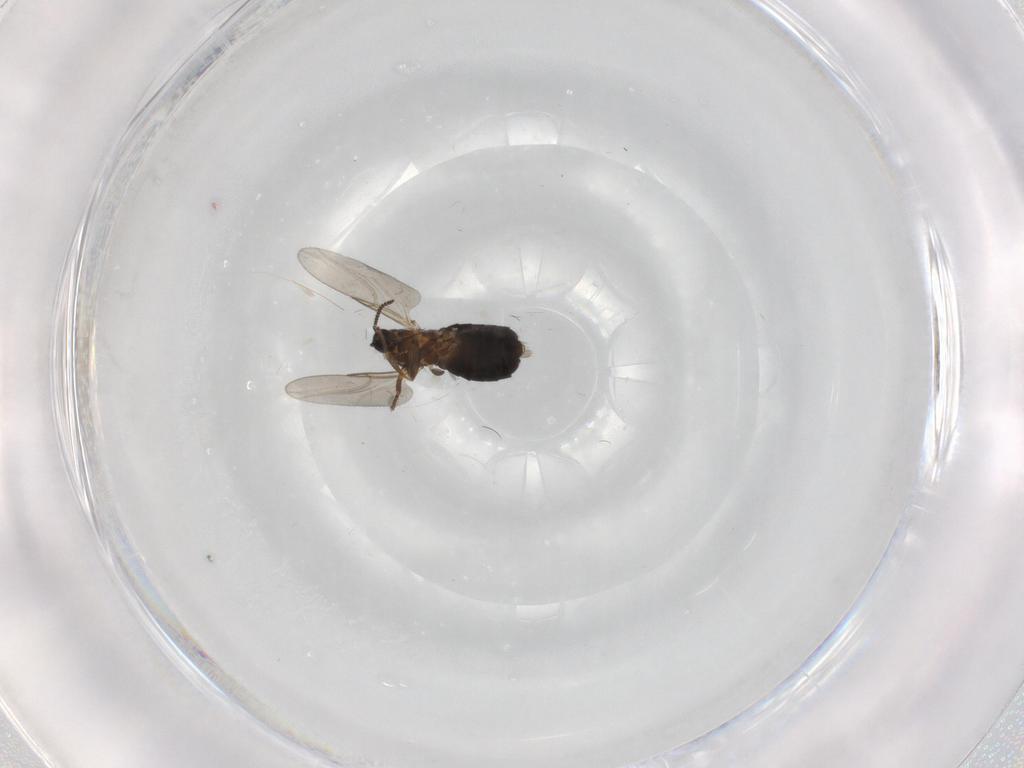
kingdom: Animalia
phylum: Arthropoda
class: Insecta
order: Diptera
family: Scatopsidae
